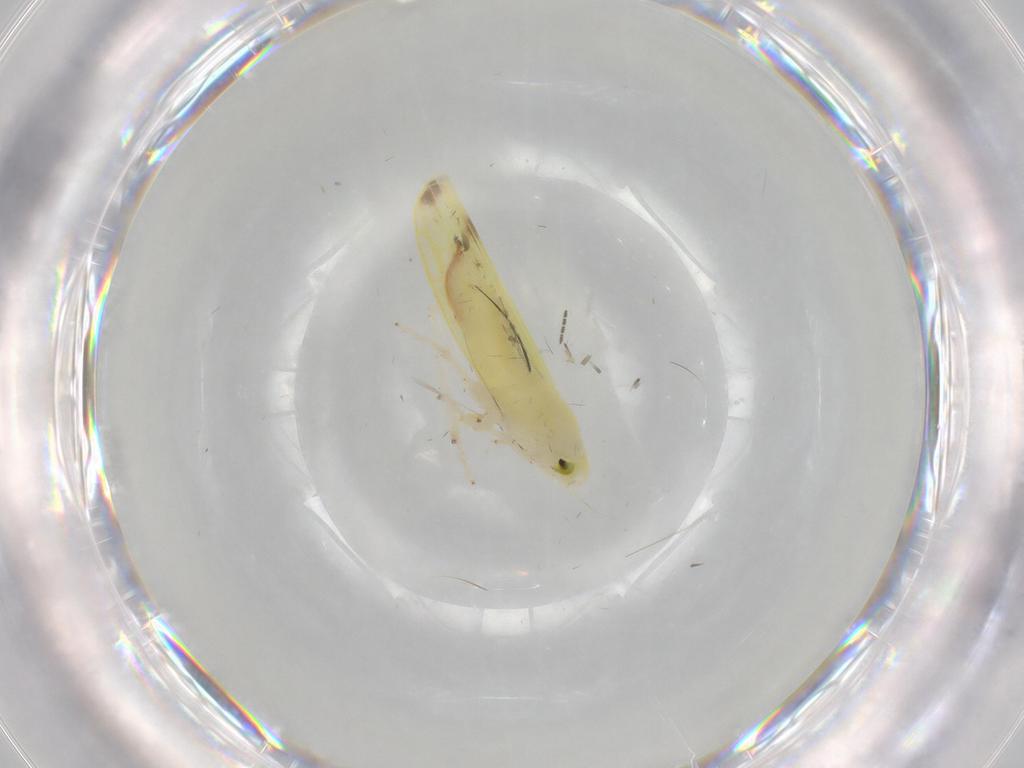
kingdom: Animalia
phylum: Arthropoda
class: Insecta
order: Hemiptera
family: Cicadellidae
